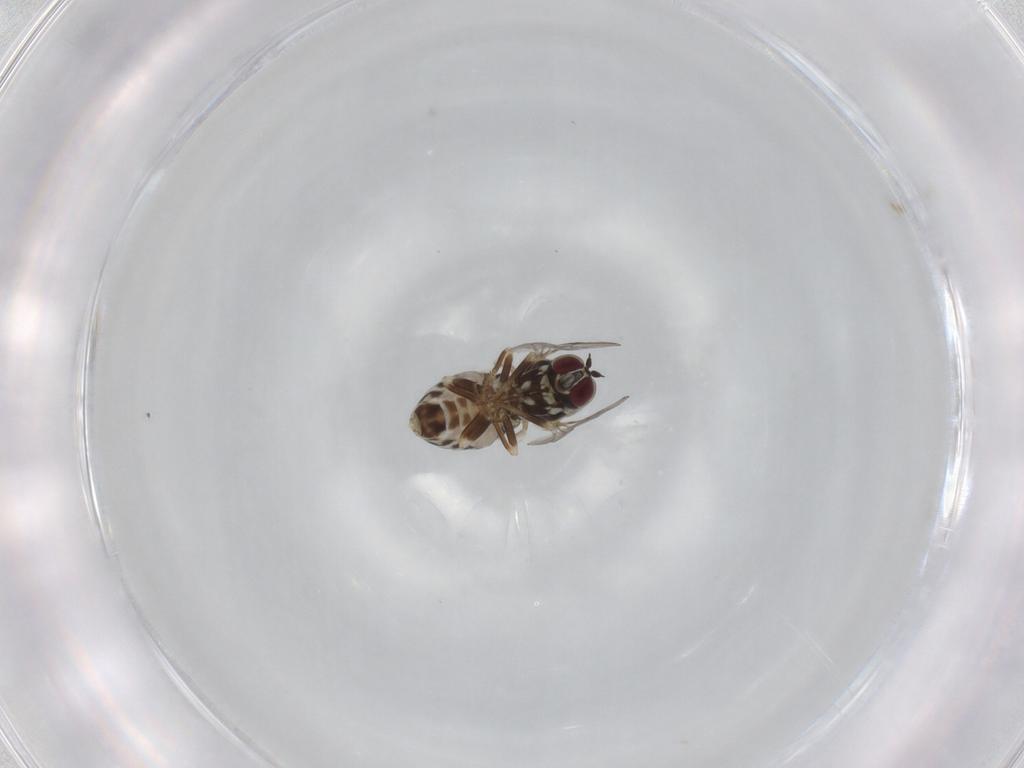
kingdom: Animalia
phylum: Arthropoda
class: Insecta
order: Diptera
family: Bombyliidae
